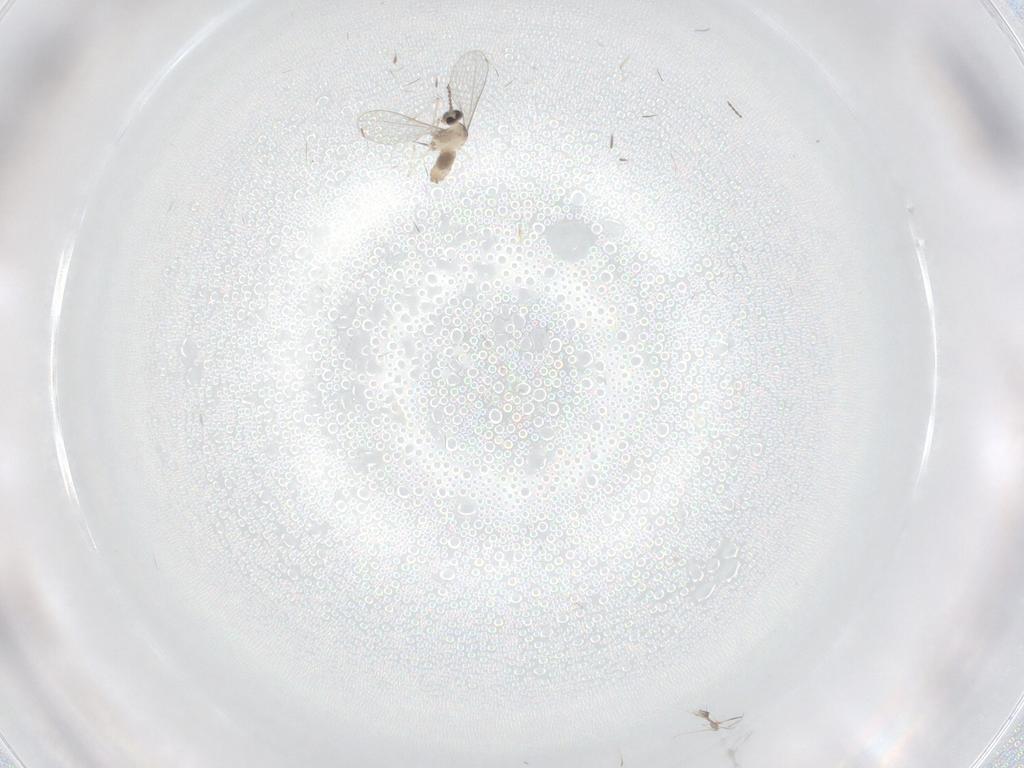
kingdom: Animalia
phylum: Arthropoda
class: Insecta
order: Diptera
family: Cecidomyiidae
